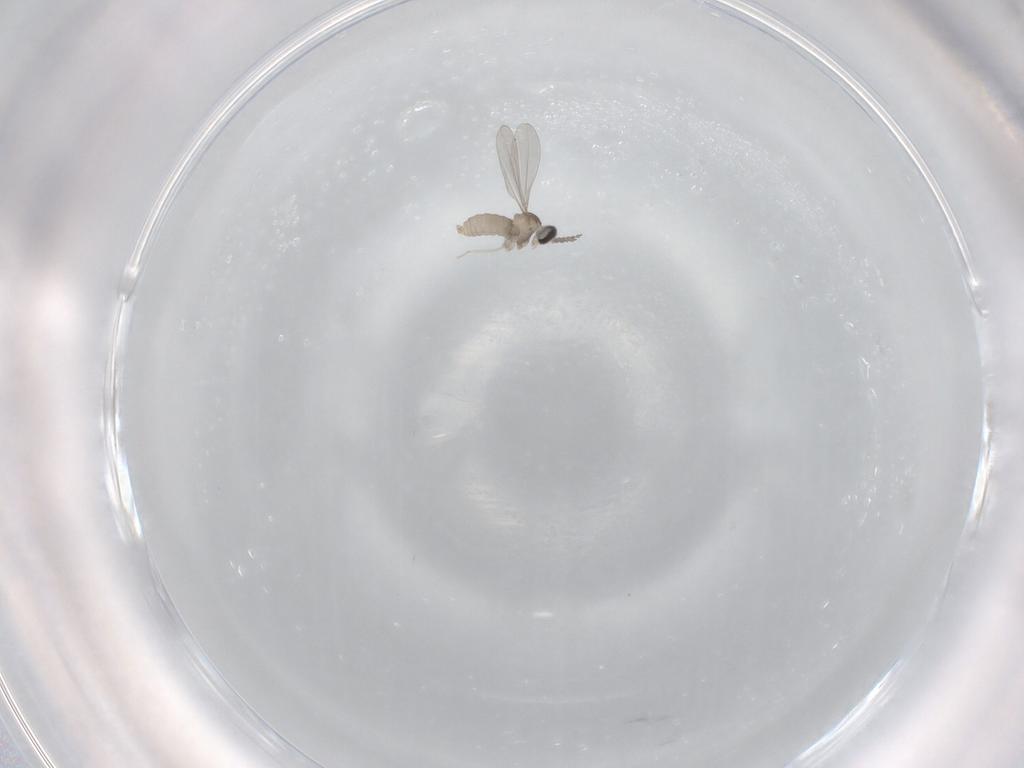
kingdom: Animalia
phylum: Arthropoda
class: Insecta
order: Diptera
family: Cecidomyiidae
